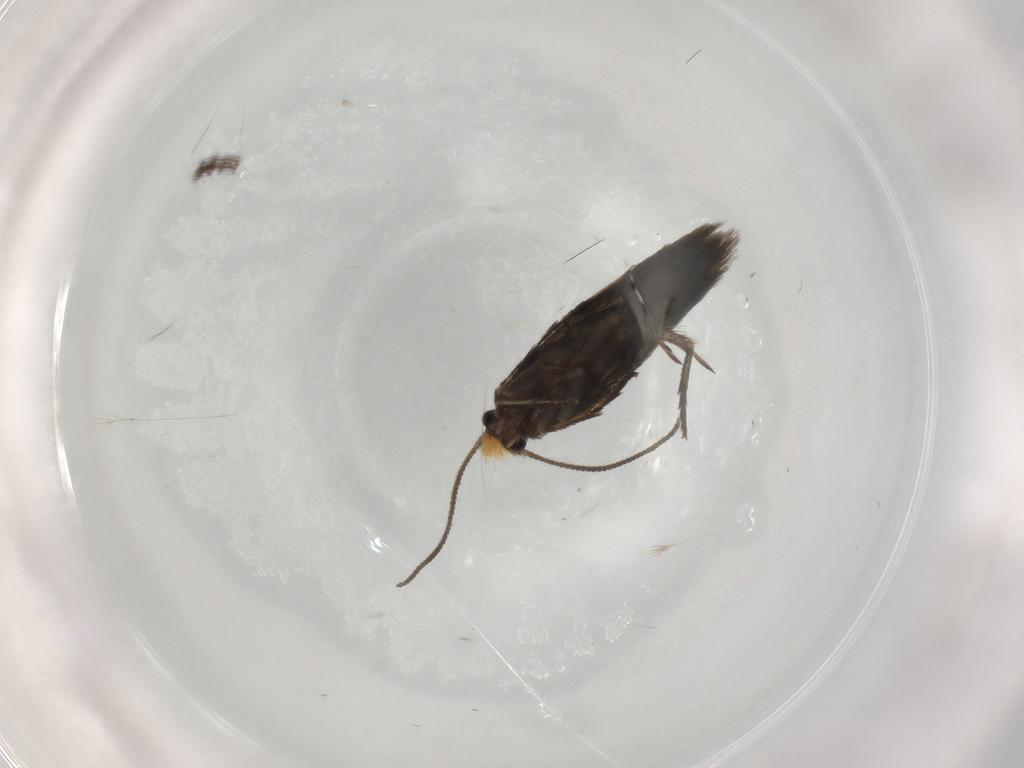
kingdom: Animalia
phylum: Arthropoda
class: Insecta
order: Lepidoptera
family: Nepticulidae
